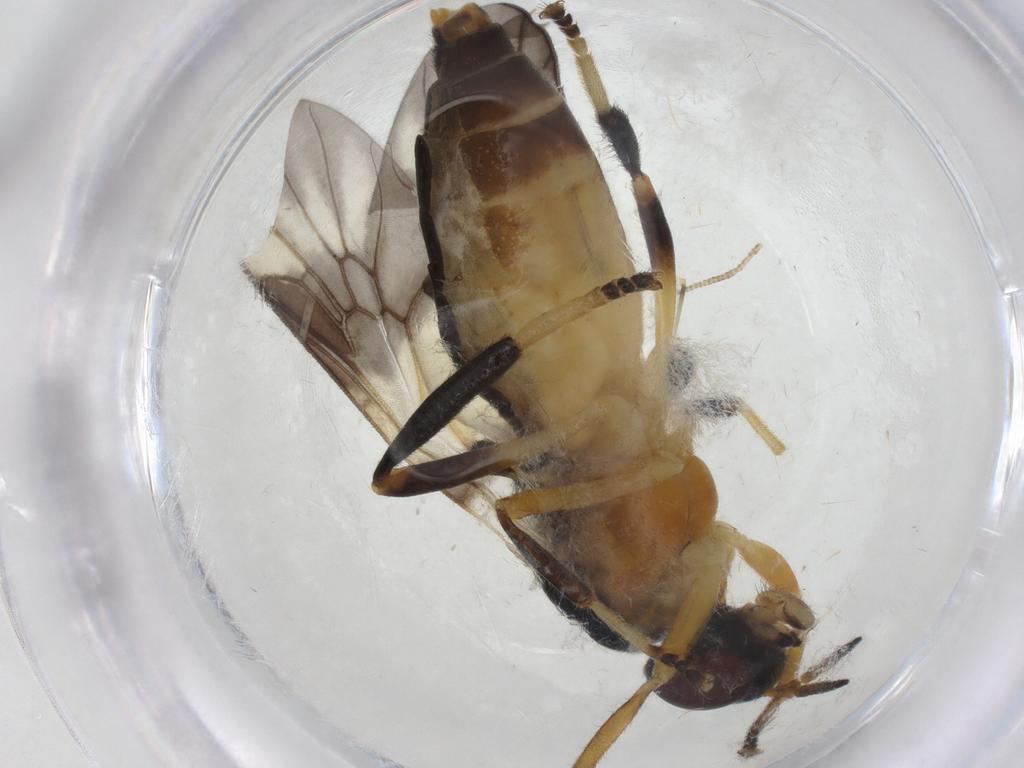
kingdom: Animalia
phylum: Arthropoda
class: Insecta
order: Diptera
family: Stratiomyidae
